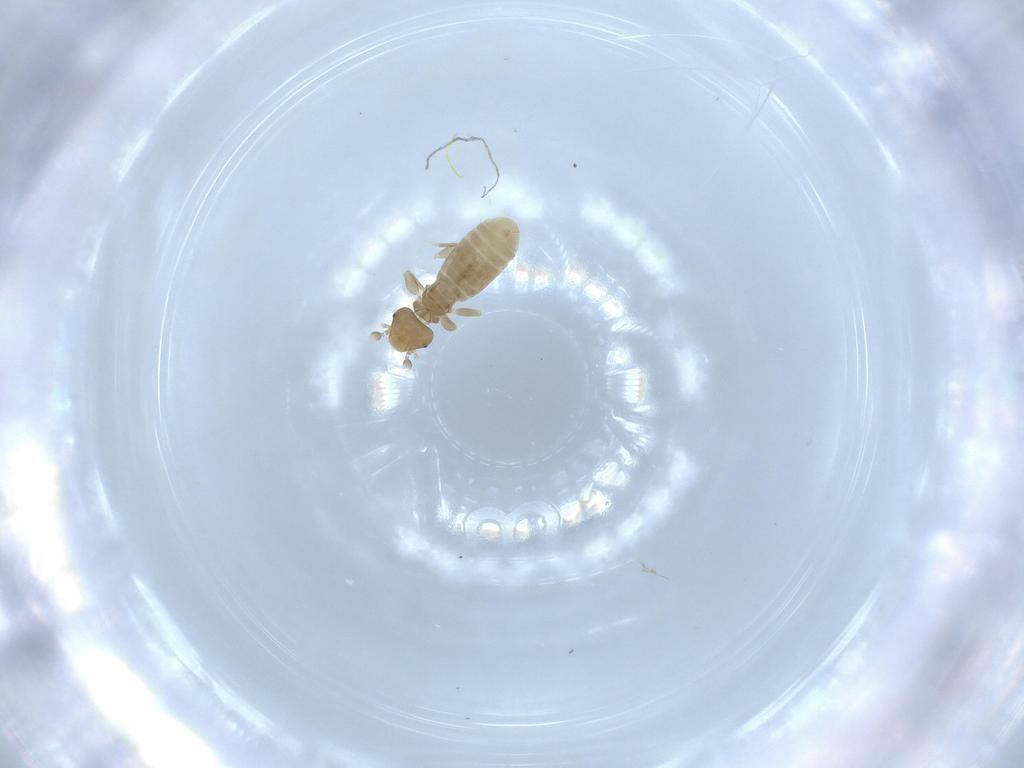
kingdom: Animalia
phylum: Arthropoda
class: Insecta
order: Psocodea
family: Liposcelididae
